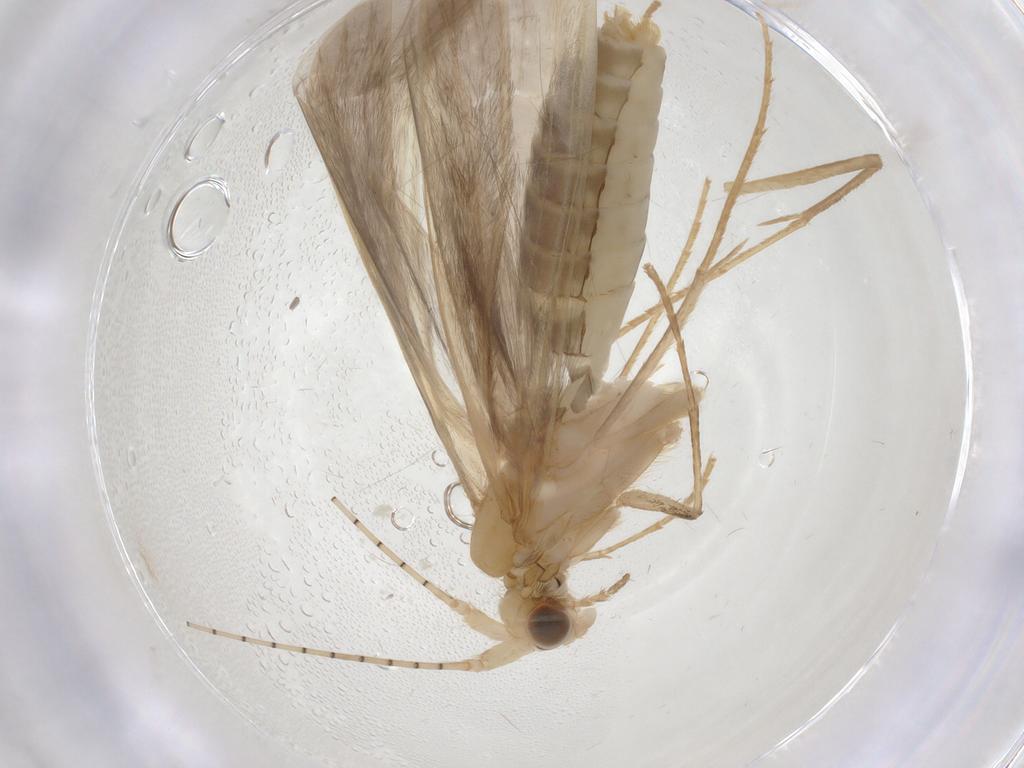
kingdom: Animalia
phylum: Arthropoda
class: Insecta
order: Trichoptera
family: Leptoceridae
